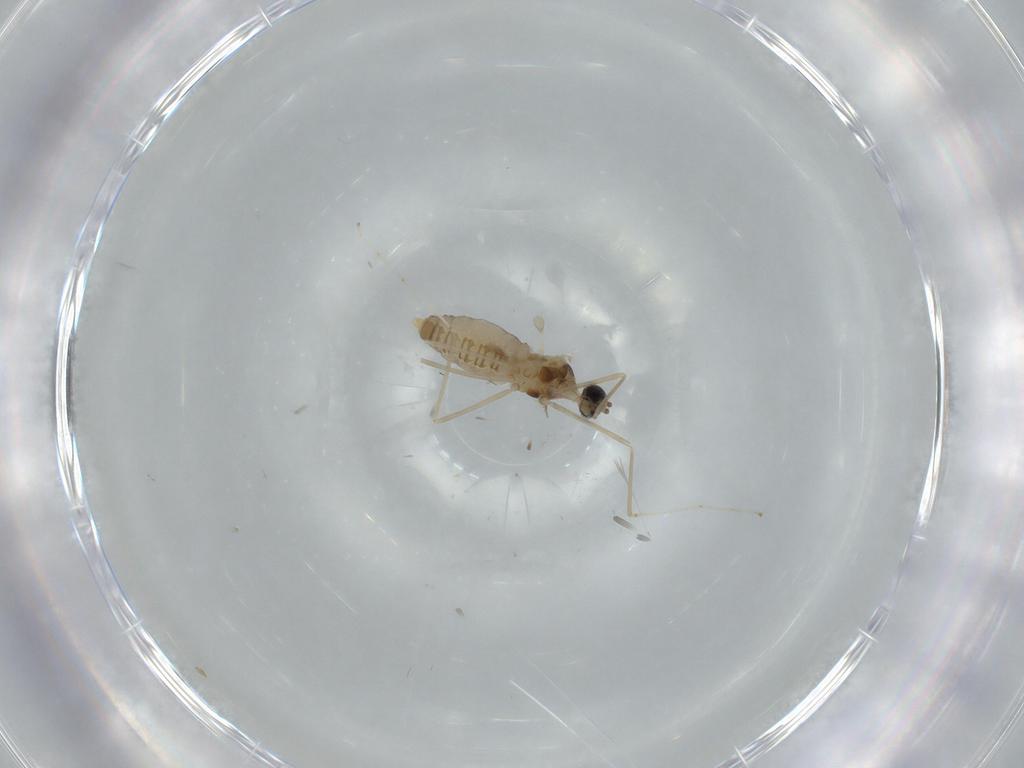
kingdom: Animalia
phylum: Arthropoda
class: Insecta
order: Diptera
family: Cecidomyiidae
